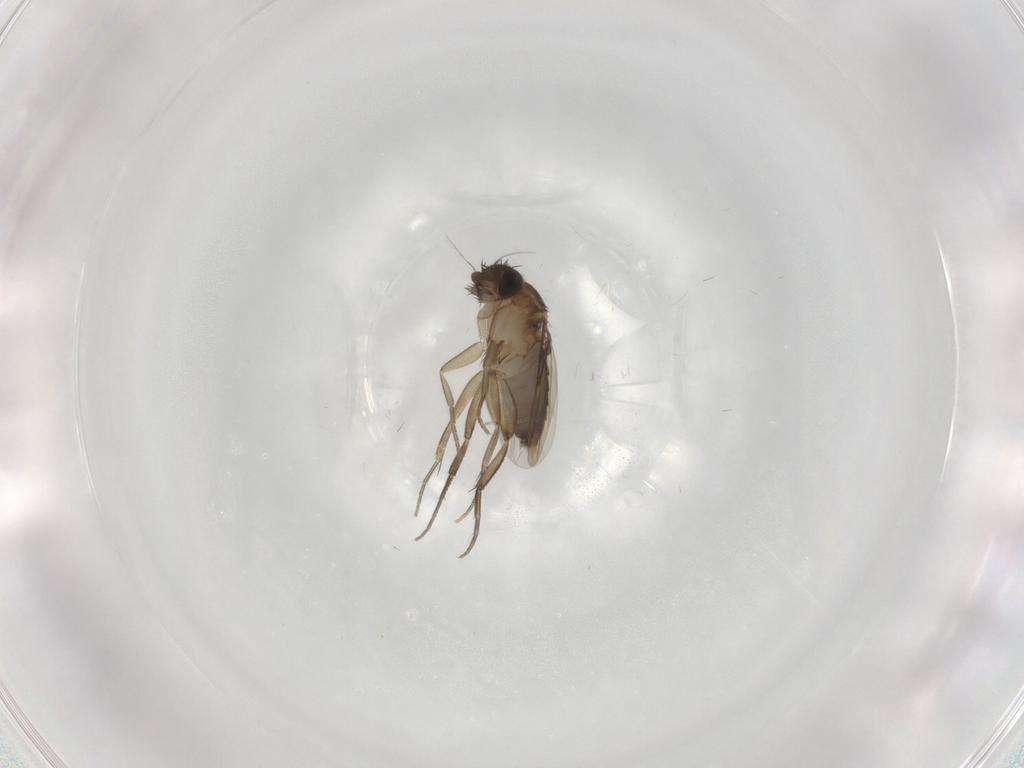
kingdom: Animalia
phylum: Arthropoda
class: Insecta
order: Diptera
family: Phoridae
